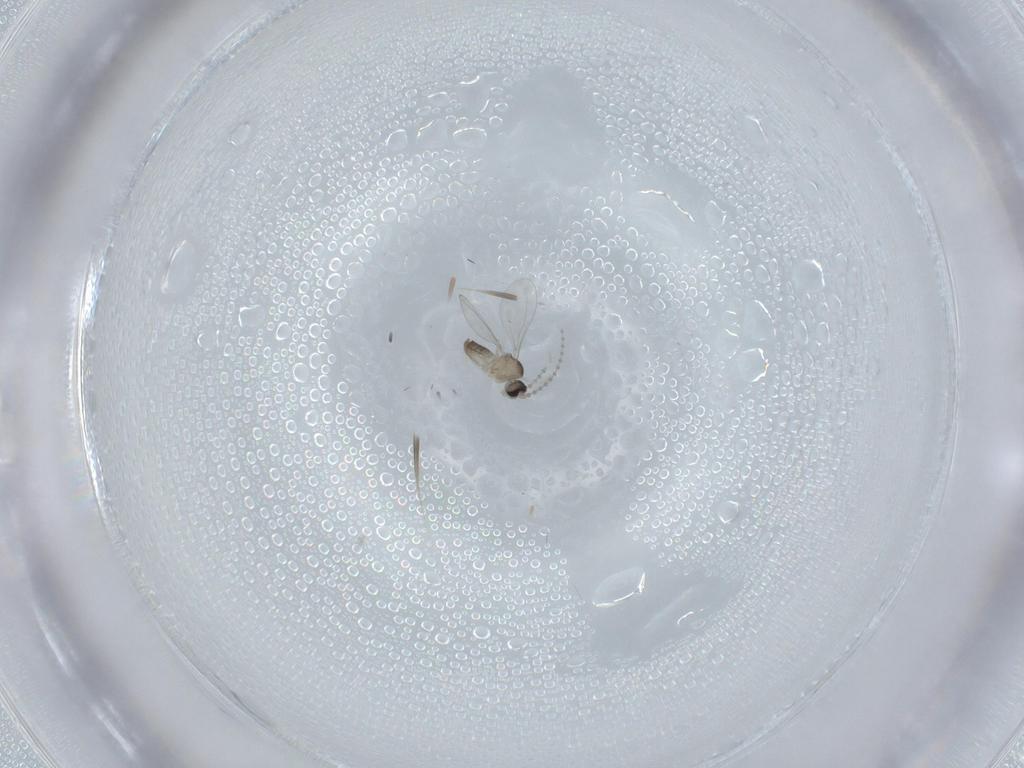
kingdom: Animalia
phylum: Arthropoda
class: Insecta
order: Diptera
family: Cecidomyiidae
